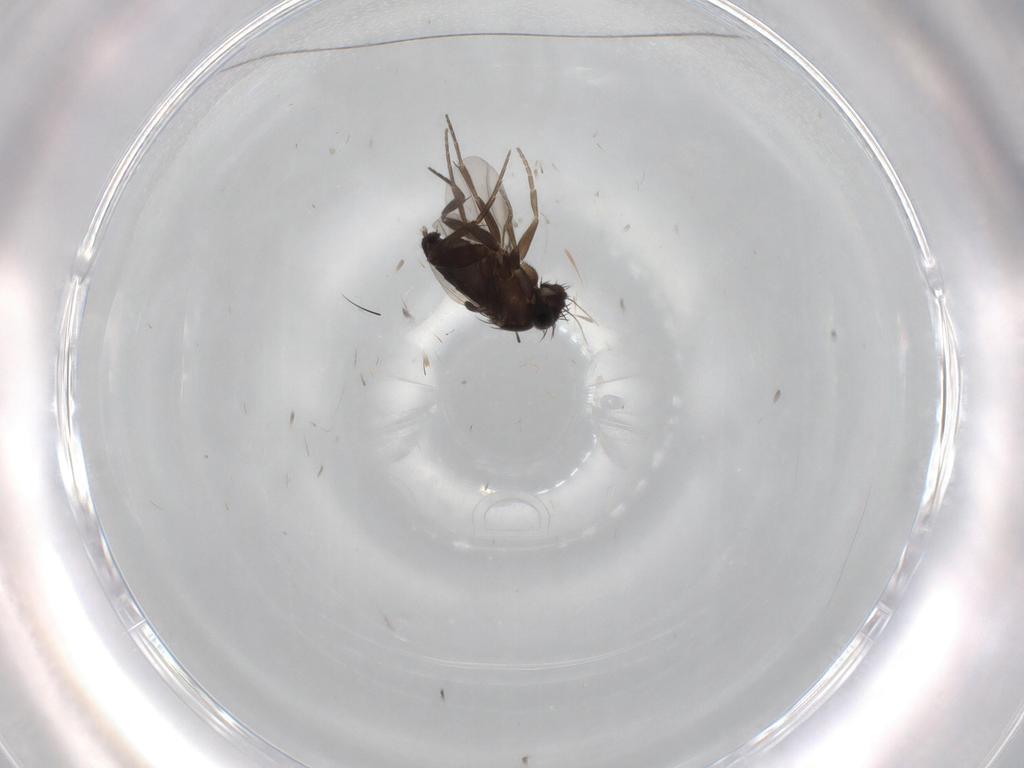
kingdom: Animalia
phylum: Arthropoda
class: Insecta
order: Diptera
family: Phoridae
